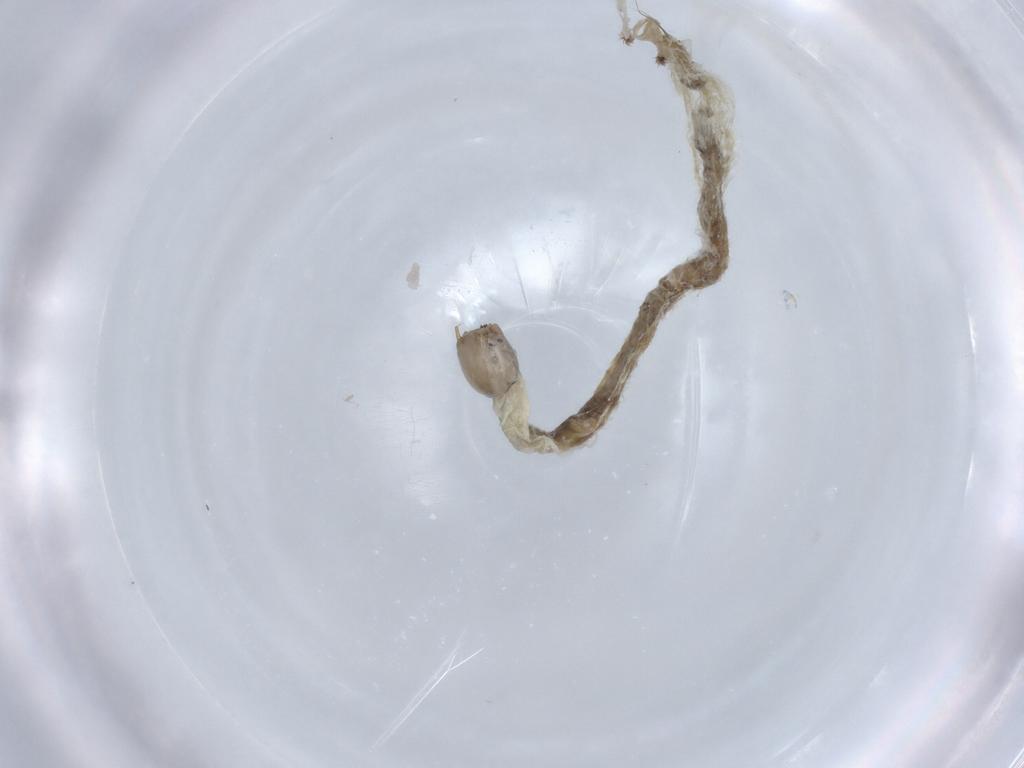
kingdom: Animalia
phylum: Arthropoda
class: Insecta
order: Diptera
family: Chironomidae
